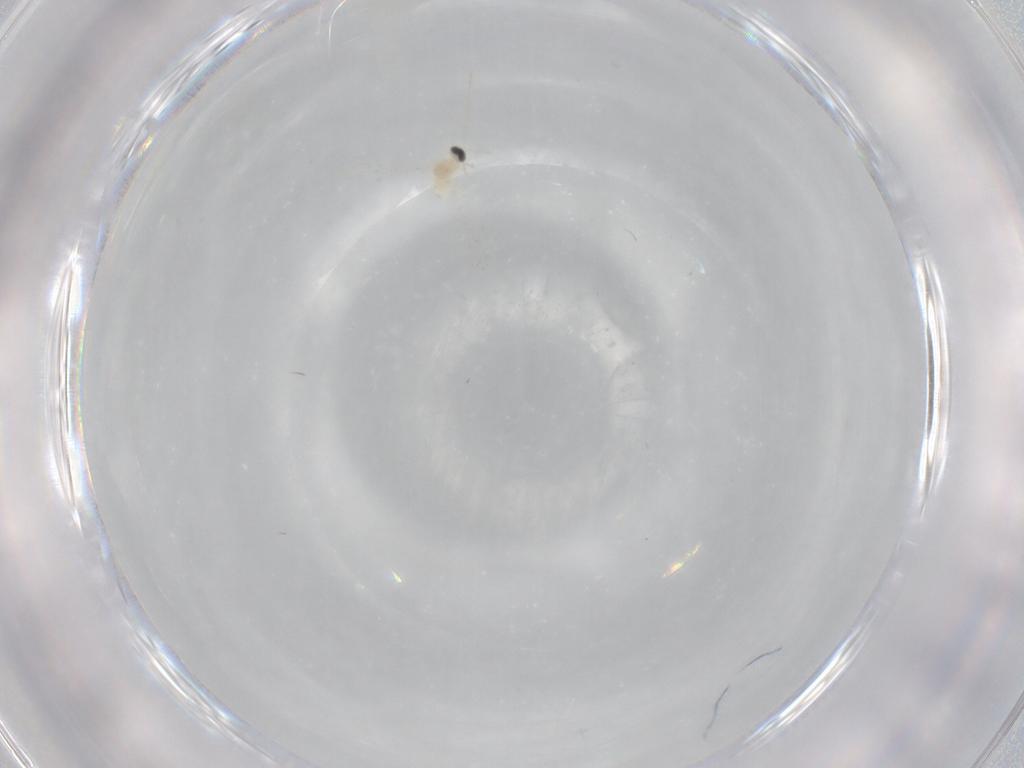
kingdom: Animalia
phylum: Arthropoda
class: Insecta
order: Diptera
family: Cecidomyiidae
